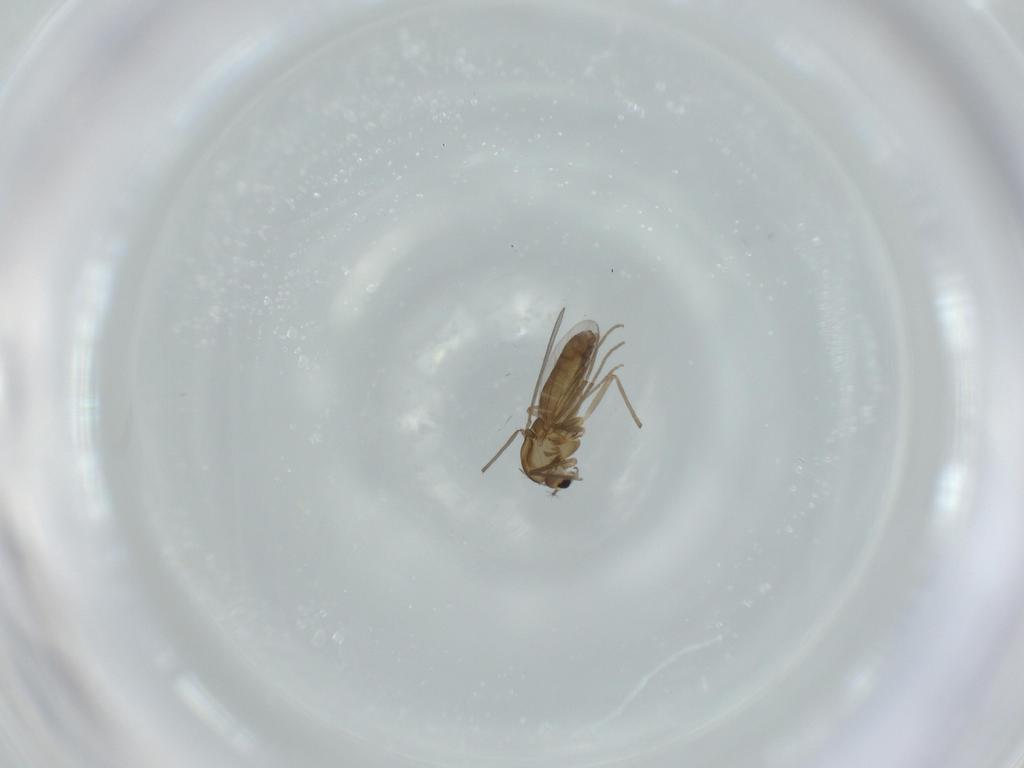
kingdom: Animalia
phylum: Arthropoda
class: Insecta
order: Diptera
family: Chironomidae
